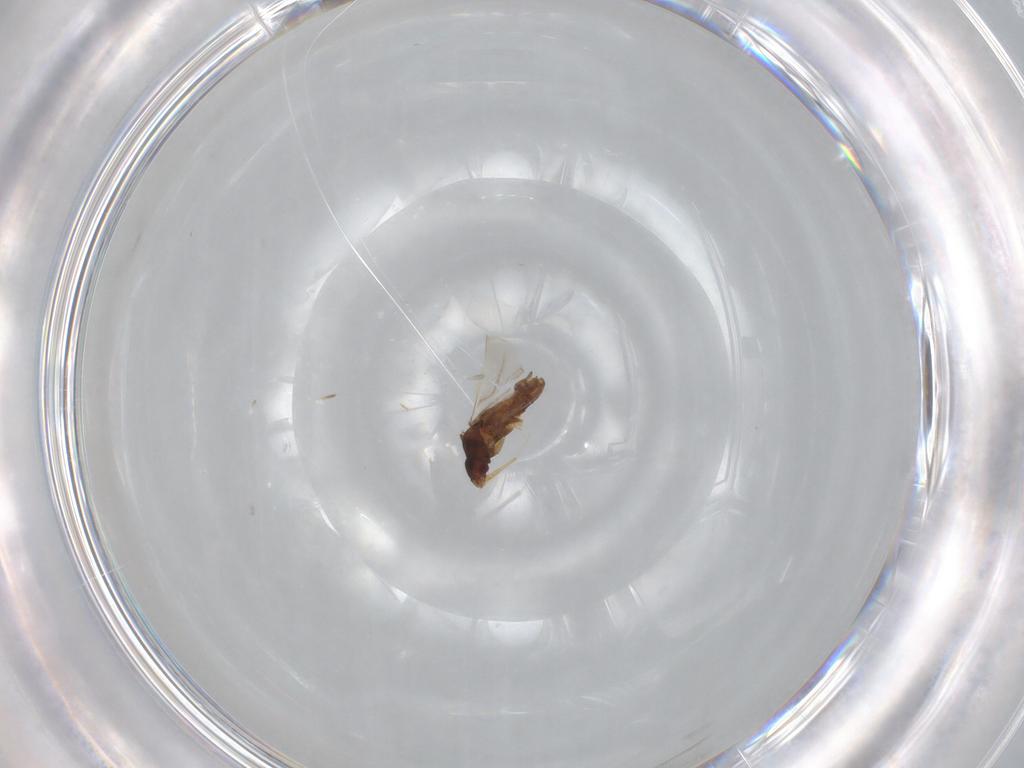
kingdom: Animalia
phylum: Arthropoda
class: Insecta
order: Hemiptera
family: Ceratocombidae
